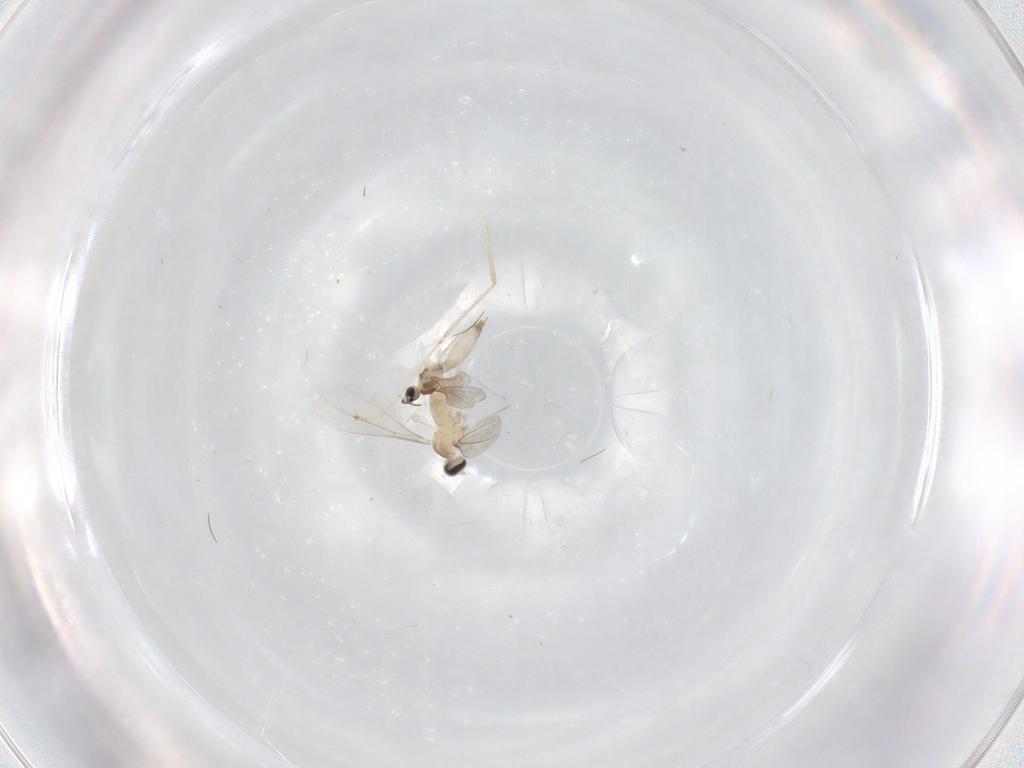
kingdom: Animalia
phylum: Arthropoda
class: Insecta
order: Diptera
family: Cecidomyiidae
